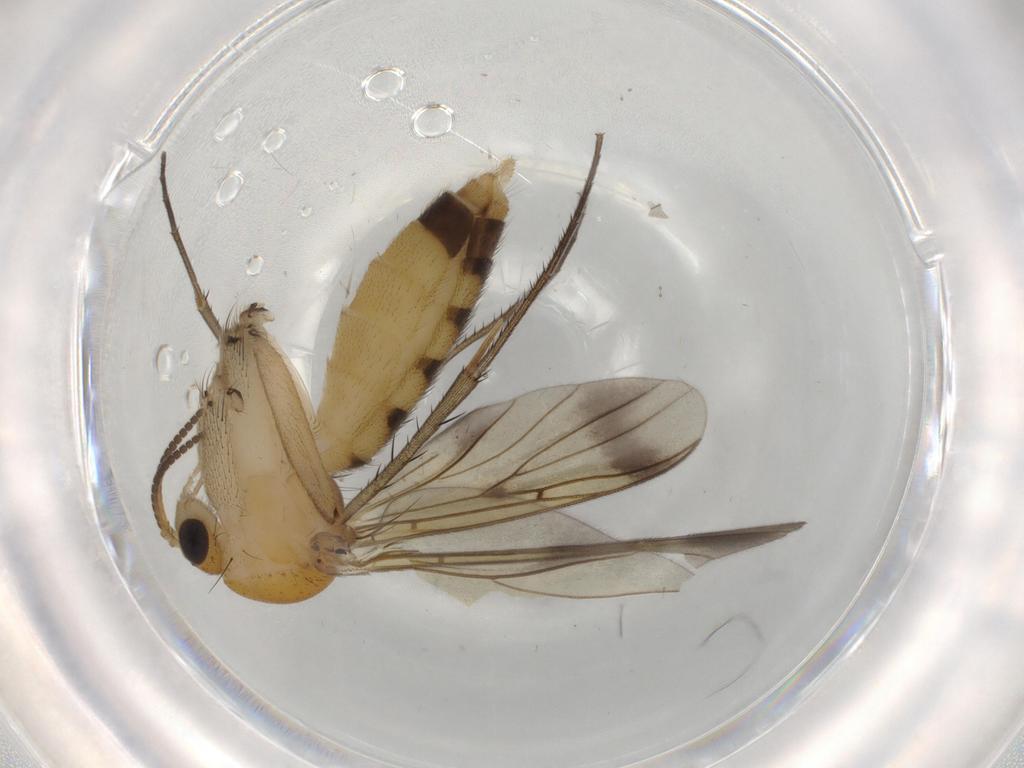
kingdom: Animalia
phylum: Arthropoda
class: Insecta
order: Diptera
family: Mycetophilidae
